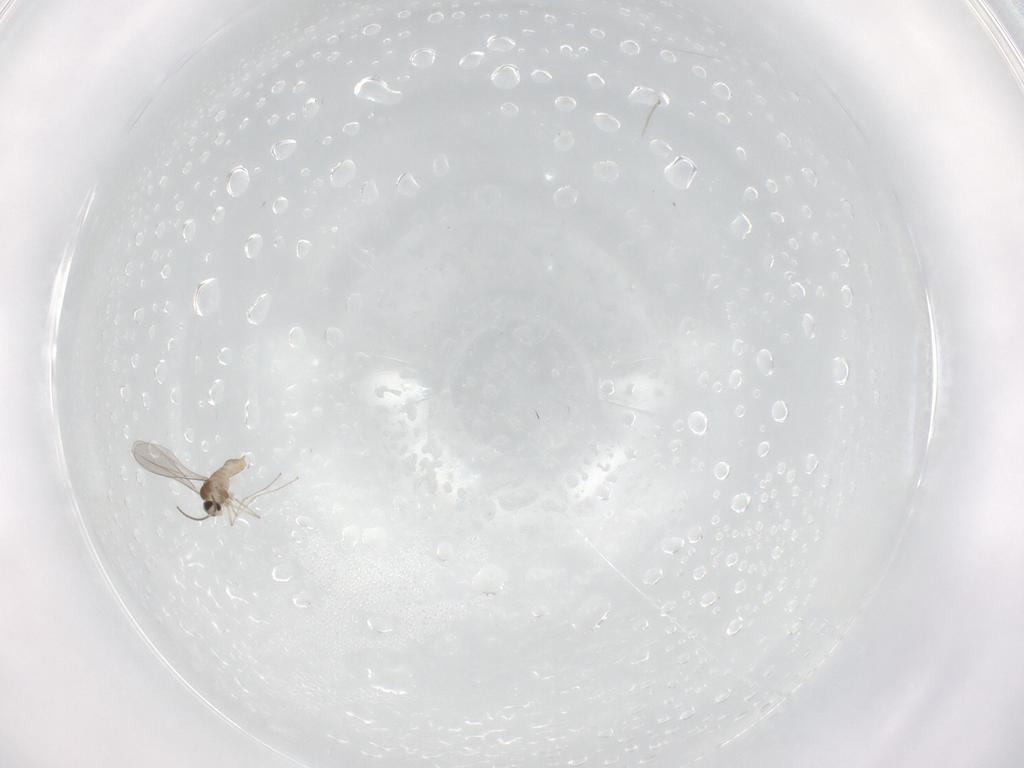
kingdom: Animalia
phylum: Arthropoda
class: Insecta
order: Diptera
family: Cecidomyiidae
